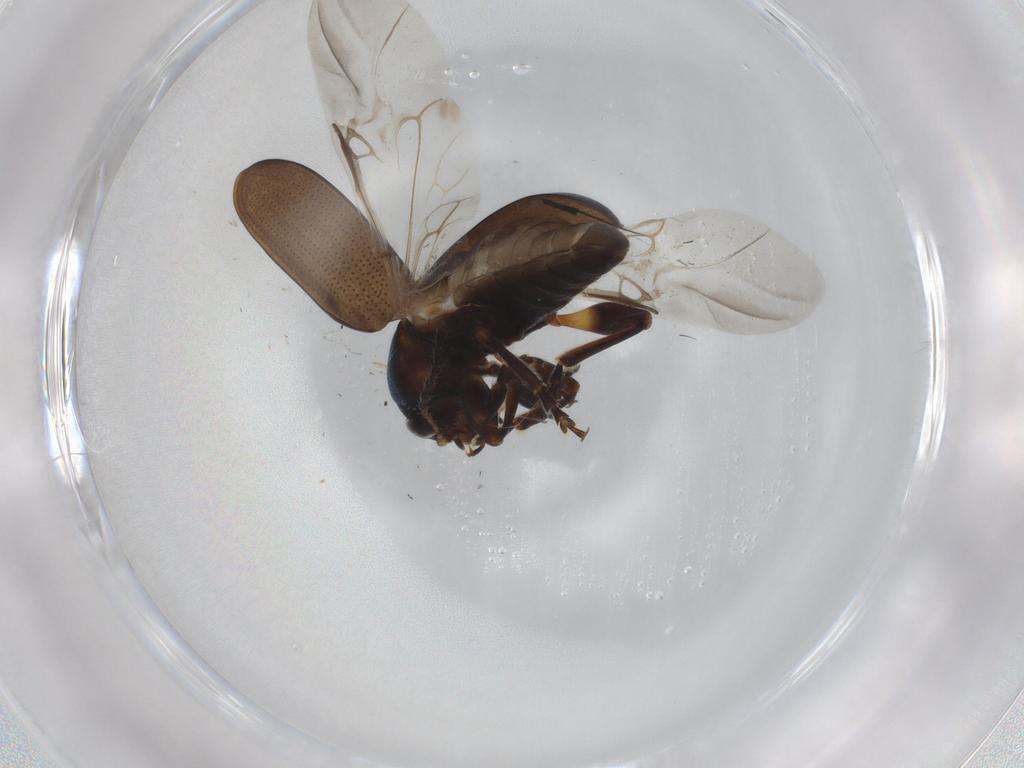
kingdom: Animalia
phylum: Arthropoda
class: Insecta
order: Coleoptera
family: Chrysomelidae
